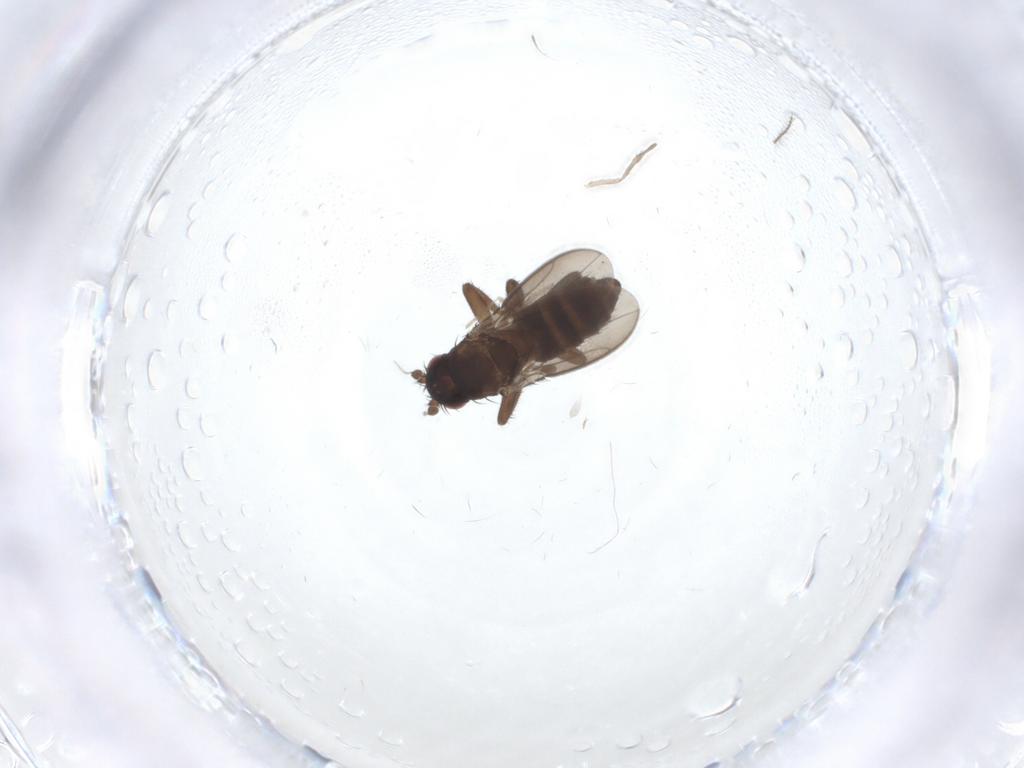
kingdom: Animalia
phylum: Arthropoda
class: Insecta
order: Diptera
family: Sphaeroceridae
